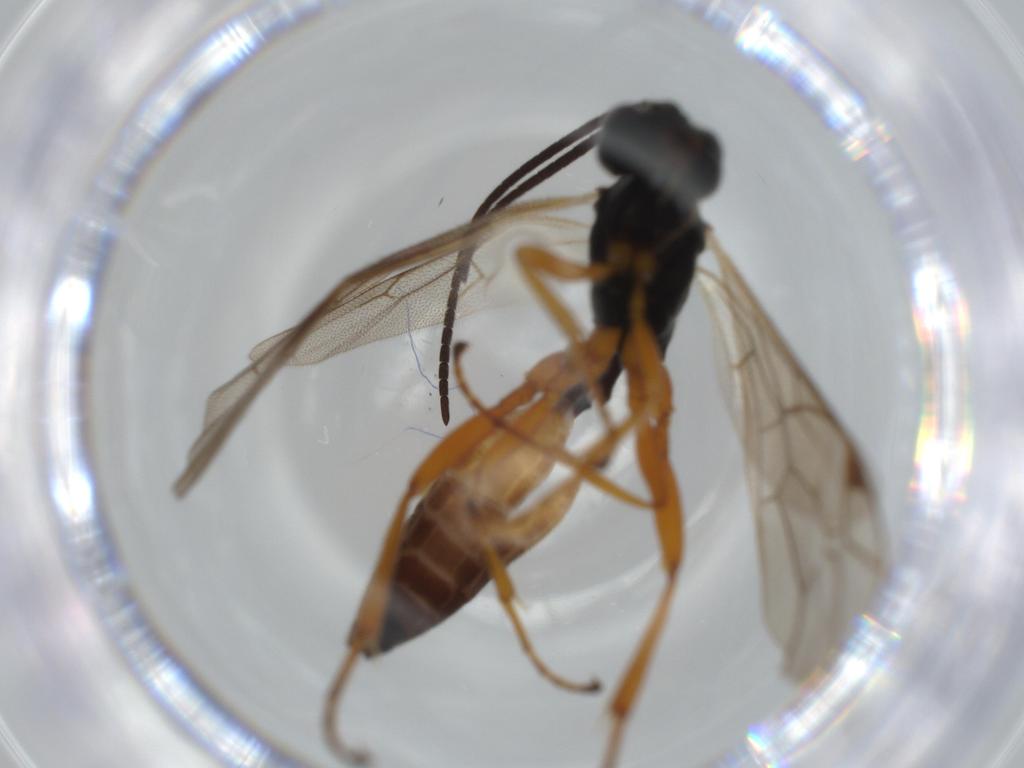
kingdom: Animalia
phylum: Arthropoda
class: Insecta
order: Hymenoptera
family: Ichneumonidae
